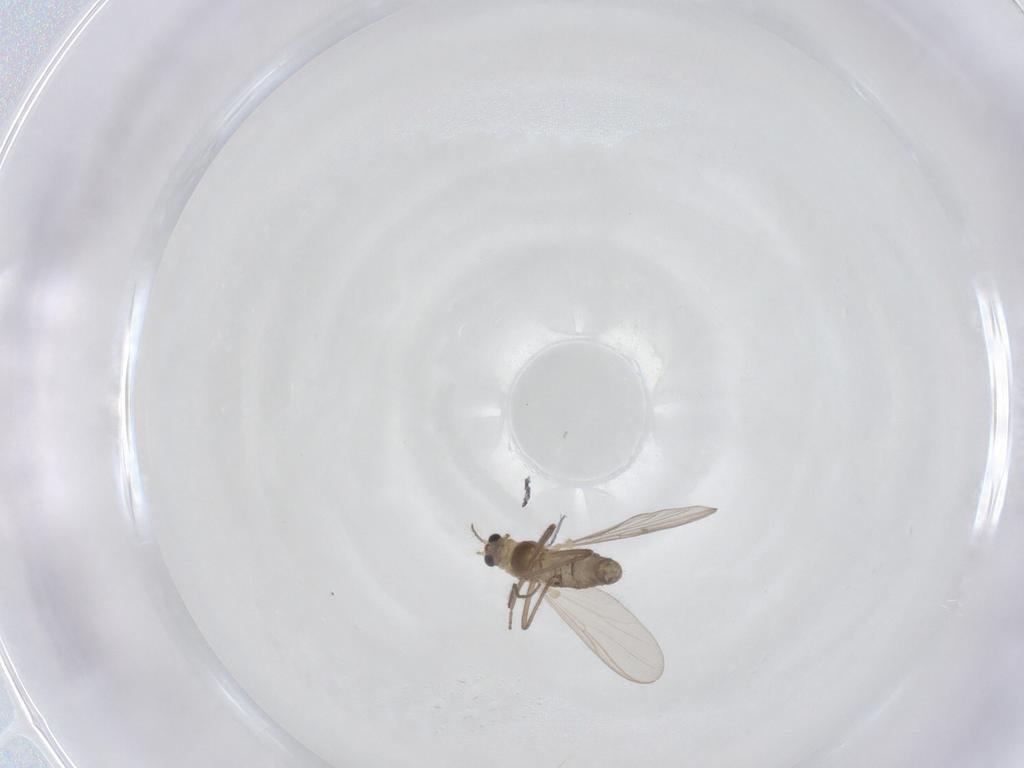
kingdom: Animalia
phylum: Arthropoda
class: Insecta
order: Diptera
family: Chironomidae
